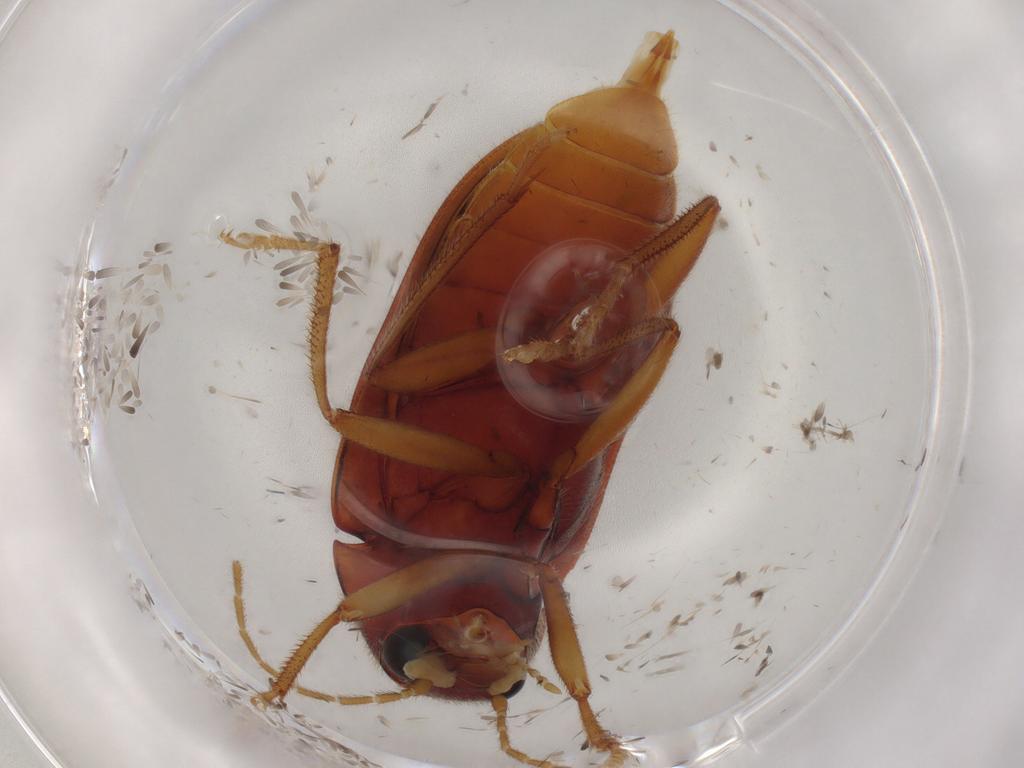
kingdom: Animalia
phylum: Arthropoda
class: Insecta
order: Coleoptera
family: Ptilodactylidae
